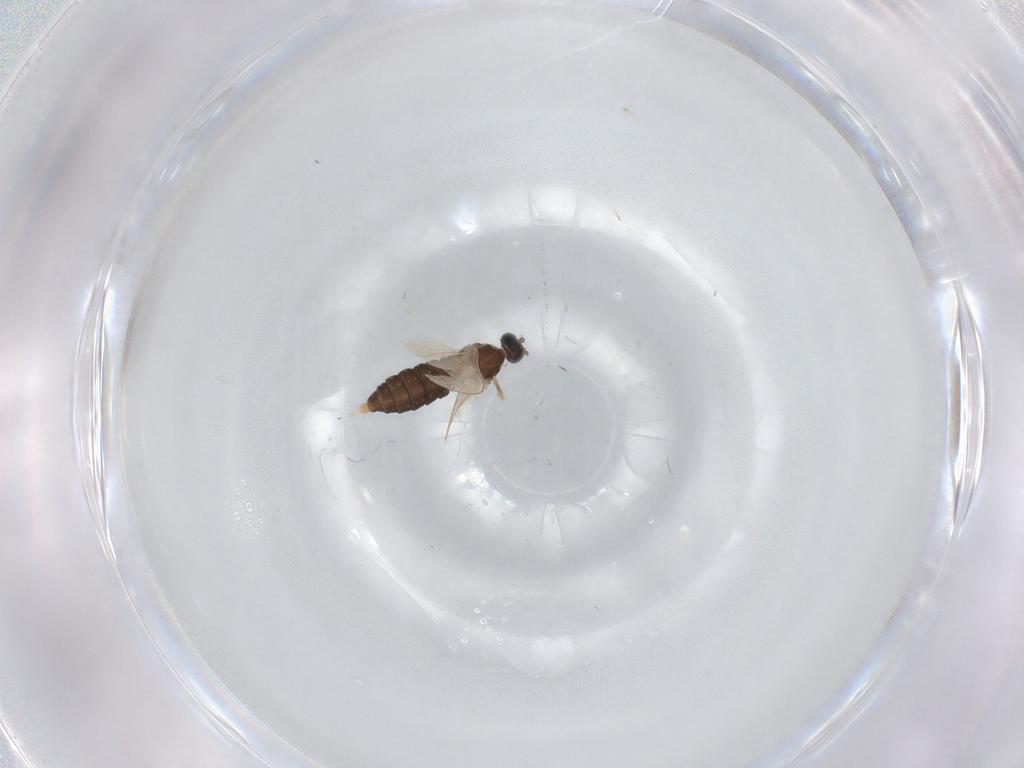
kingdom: Animalia
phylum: Arthropoda
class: Insecta
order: Diptera
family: Cecidomyiidae
